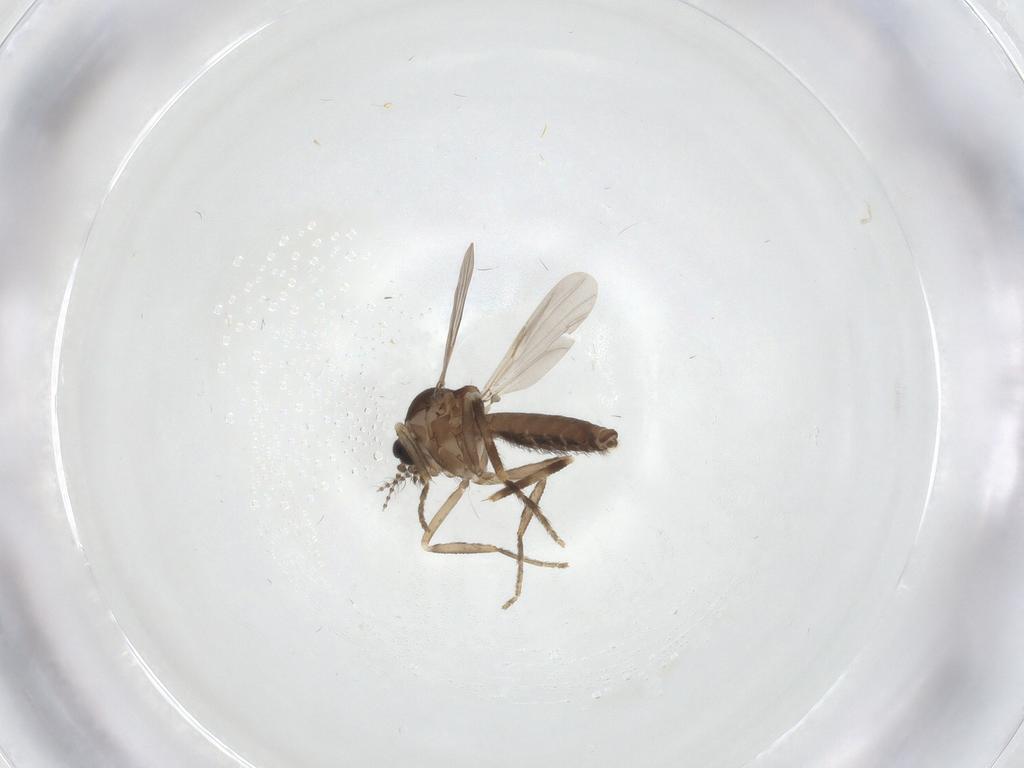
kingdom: Animalia
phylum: Arthropoda
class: Insecta
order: Diptera
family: Ceratopogonidae
